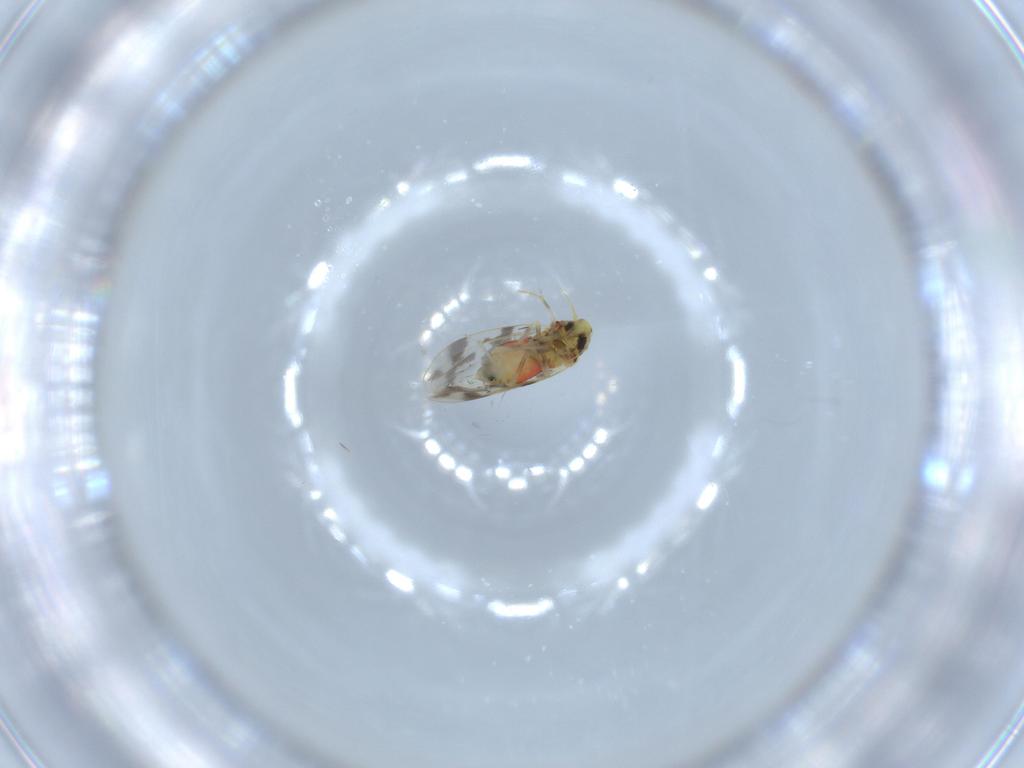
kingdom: Animalia
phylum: Arthropoda
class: Insecta
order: Hemiptera
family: Aleyrodidae
